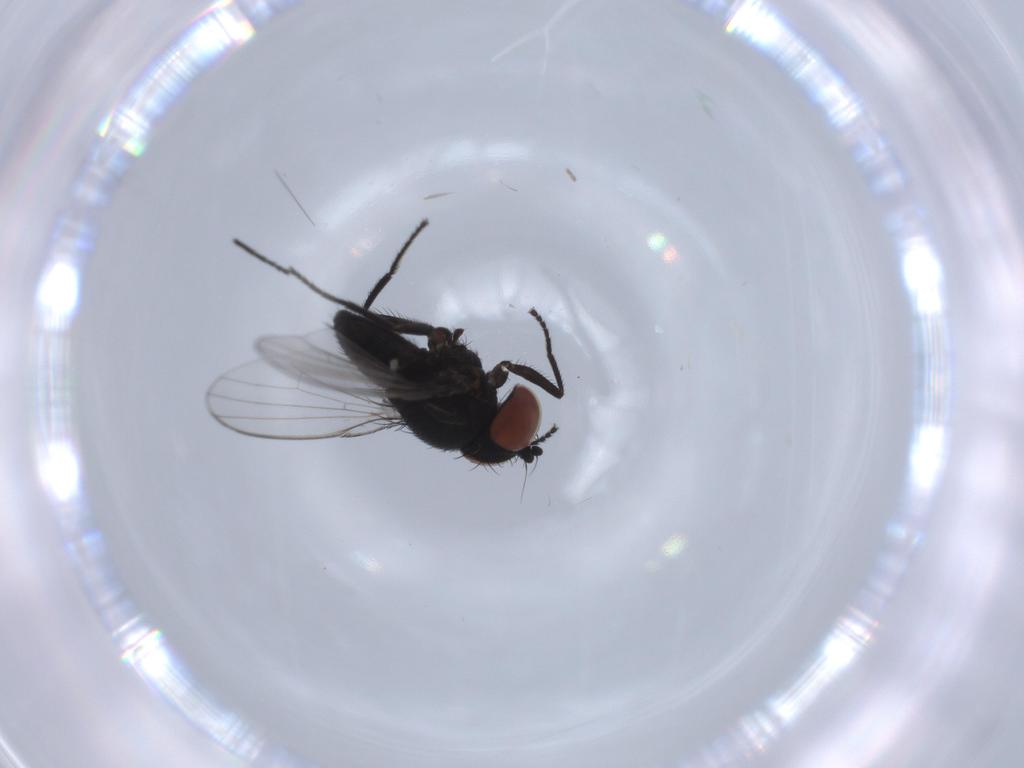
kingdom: Animalia
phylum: Arthropoda
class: Insecta
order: Diptera
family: Milichiidae
